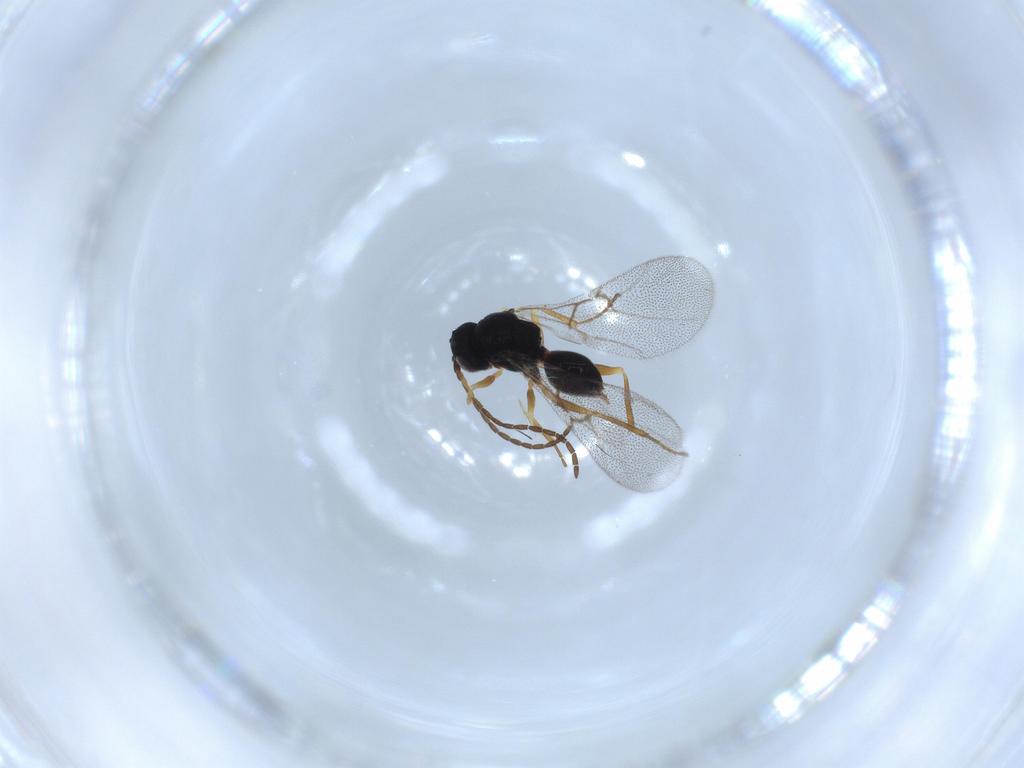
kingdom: Animalia
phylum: Arthropoda
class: Insecta
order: Hymenoptera
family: Cynipidae
